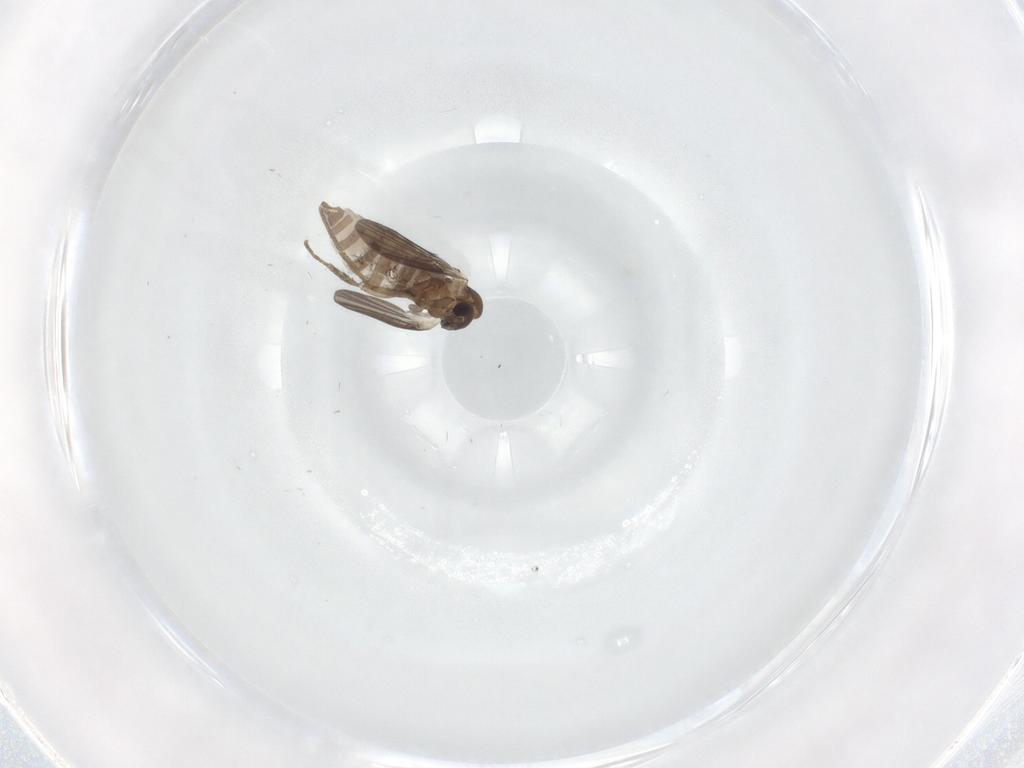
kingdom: Animalia
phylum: Arthropoda
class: Insecta
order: Diptera
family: Phoridae
